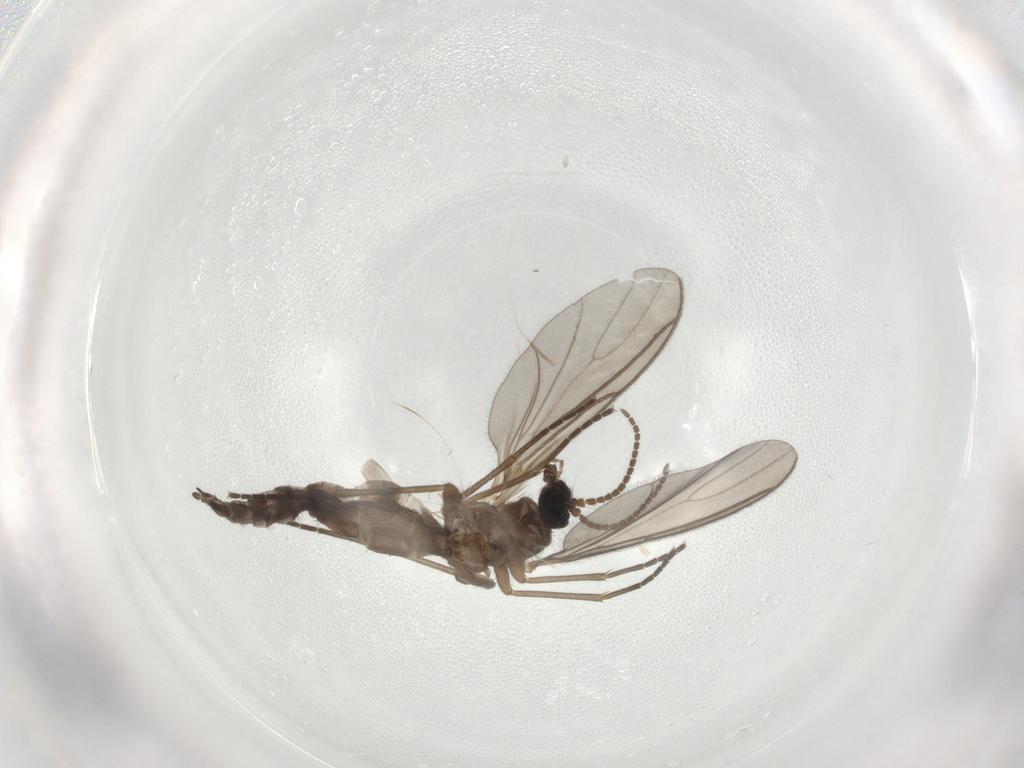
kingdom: Animalia
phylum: Arthropoda
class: Insecta
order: Diptera
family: Sciaridae
